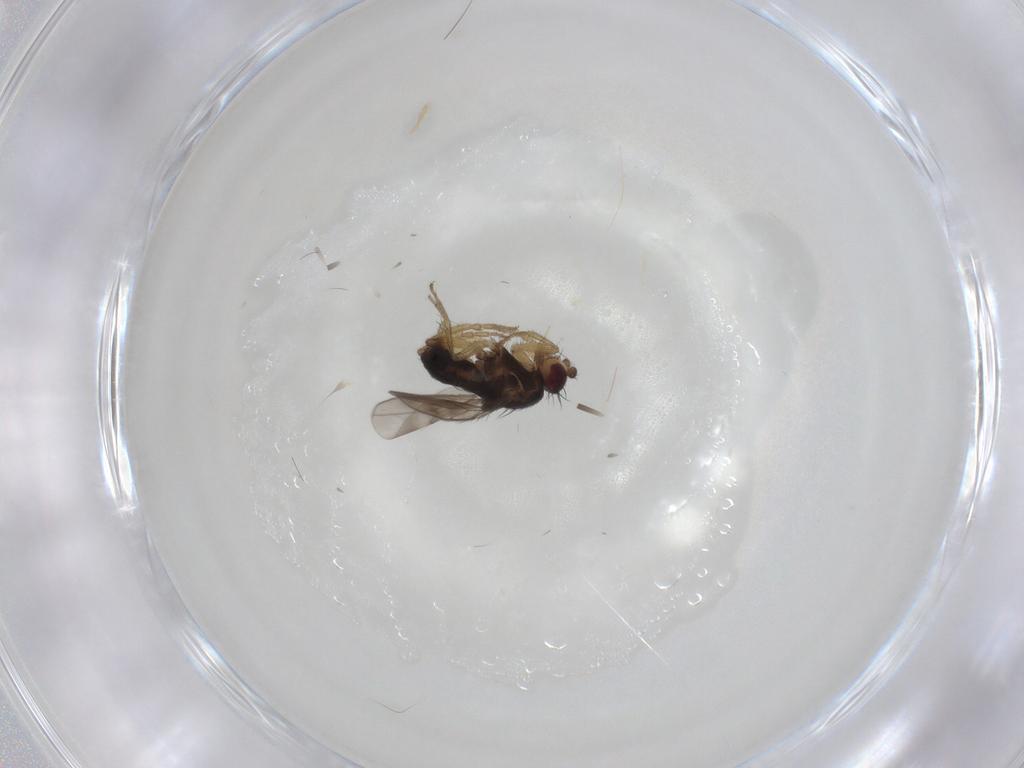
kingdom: Animalia
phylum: Arthropoda
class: Insecta
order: Diptera
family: Sphaeroceridae
